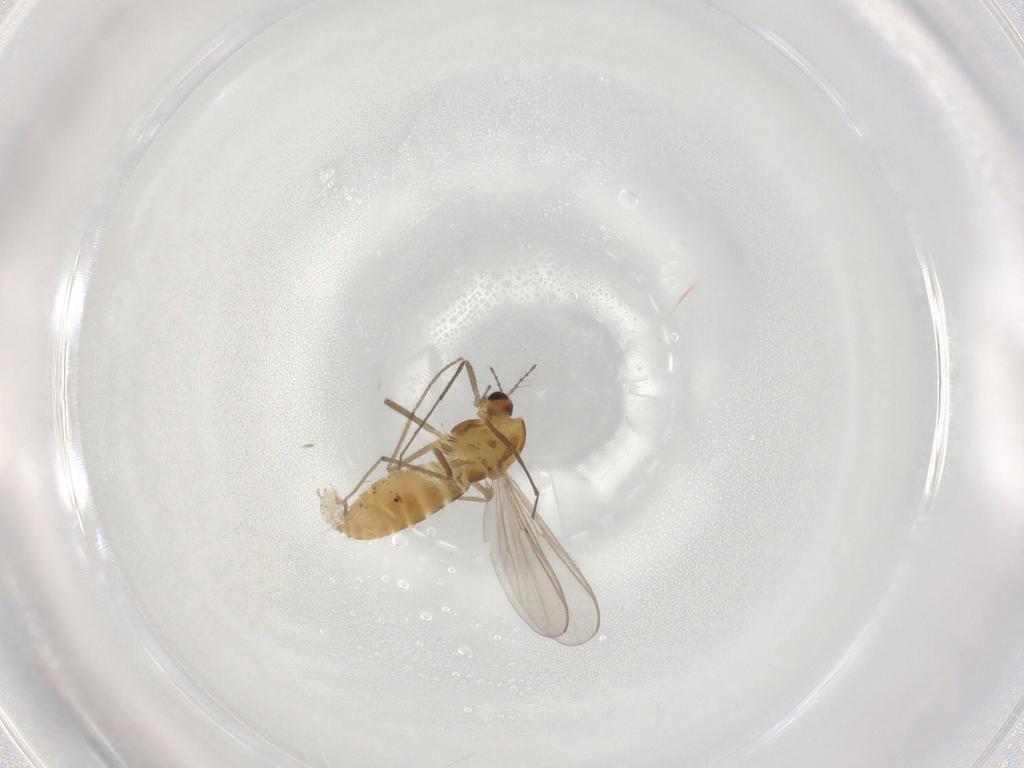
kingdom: Animalia
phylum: Arthropoda
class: Insecta
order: Diptera
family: Chironomidae
